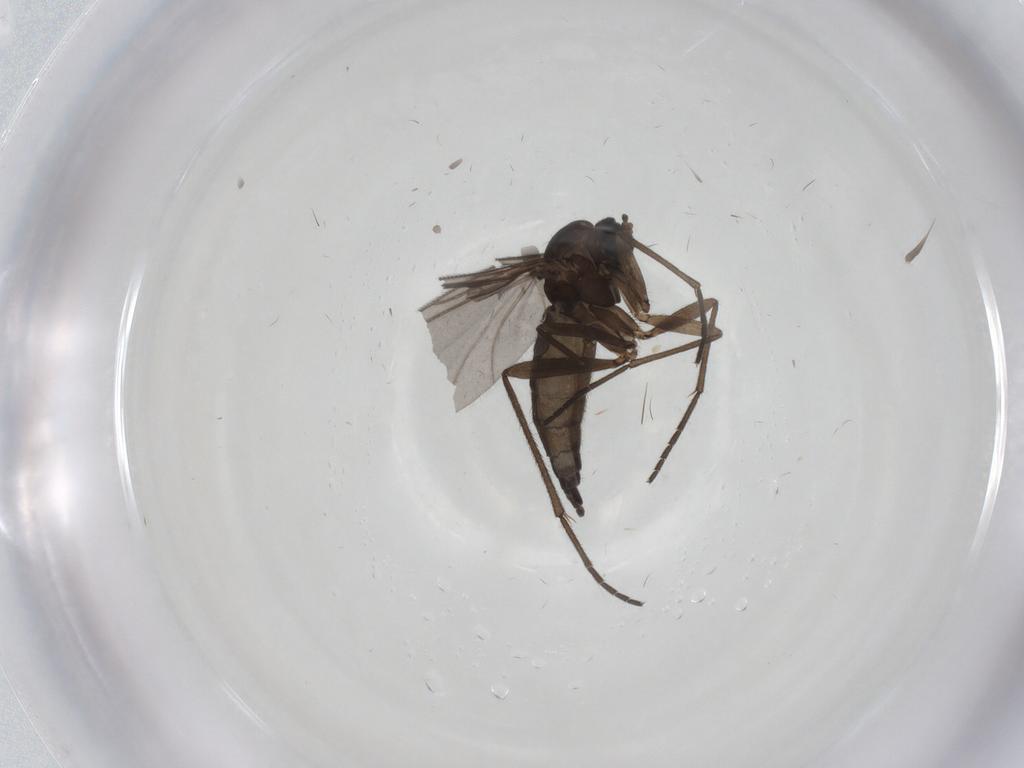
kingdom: Animalia
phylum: Arthropoda
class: Insecta
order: Diptera
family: Sciaridae
